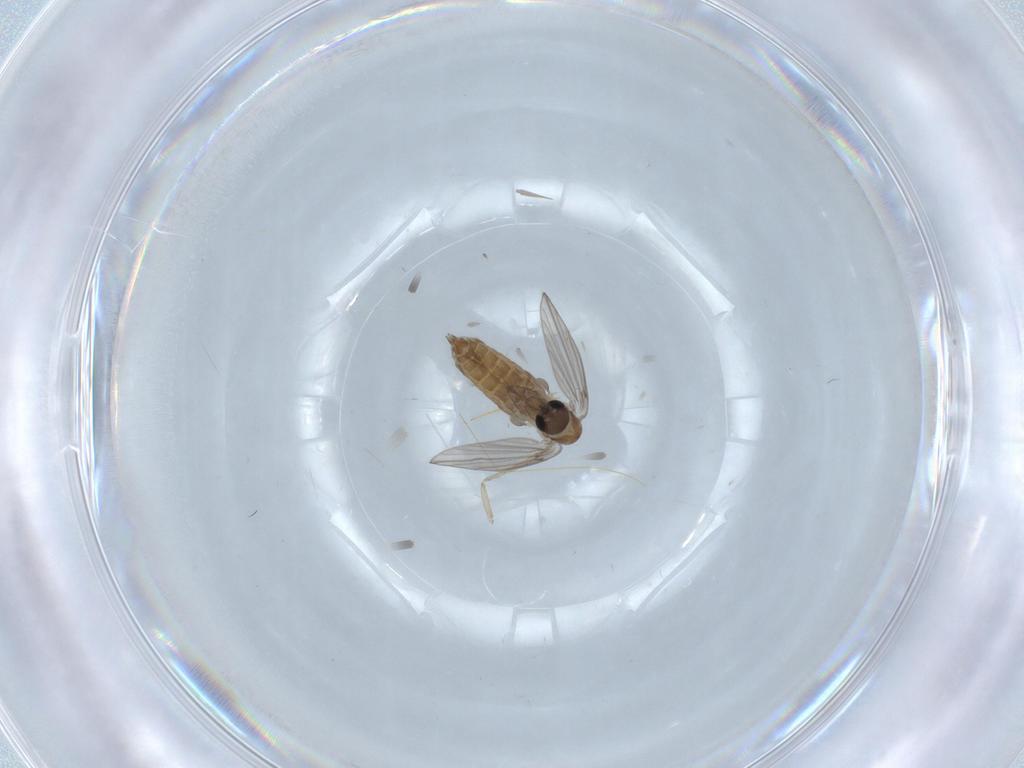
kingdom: Animalia
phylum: Arthropoda
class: Insecta
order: Diptera
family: Psychodidae
